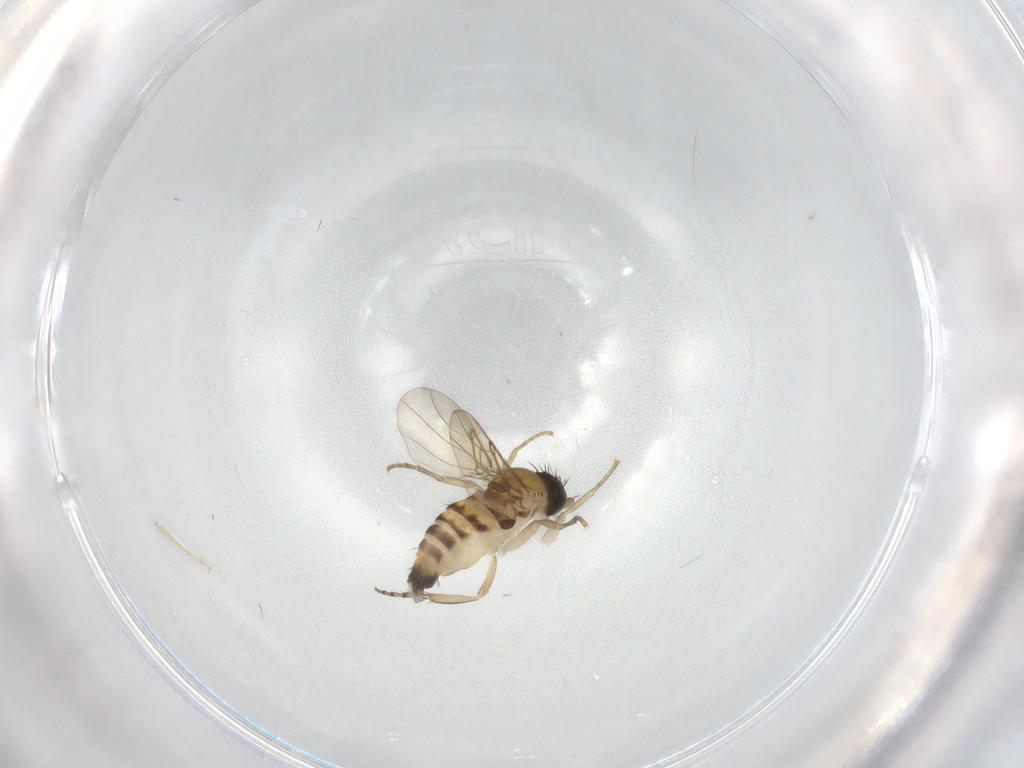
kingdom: Animalia
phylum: Arthropoda
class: Insecta
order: Diptera
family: Phoridae
